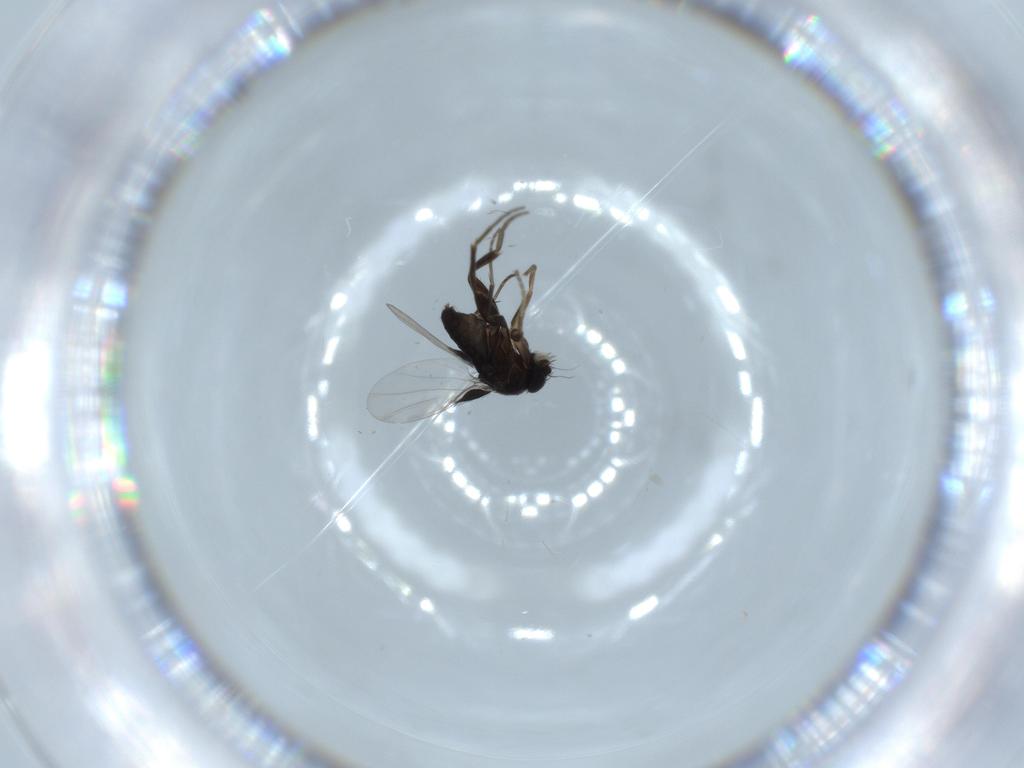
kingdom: Animalia
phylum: Arthropoda
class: Insecta
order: Diptera
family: Phoridae
